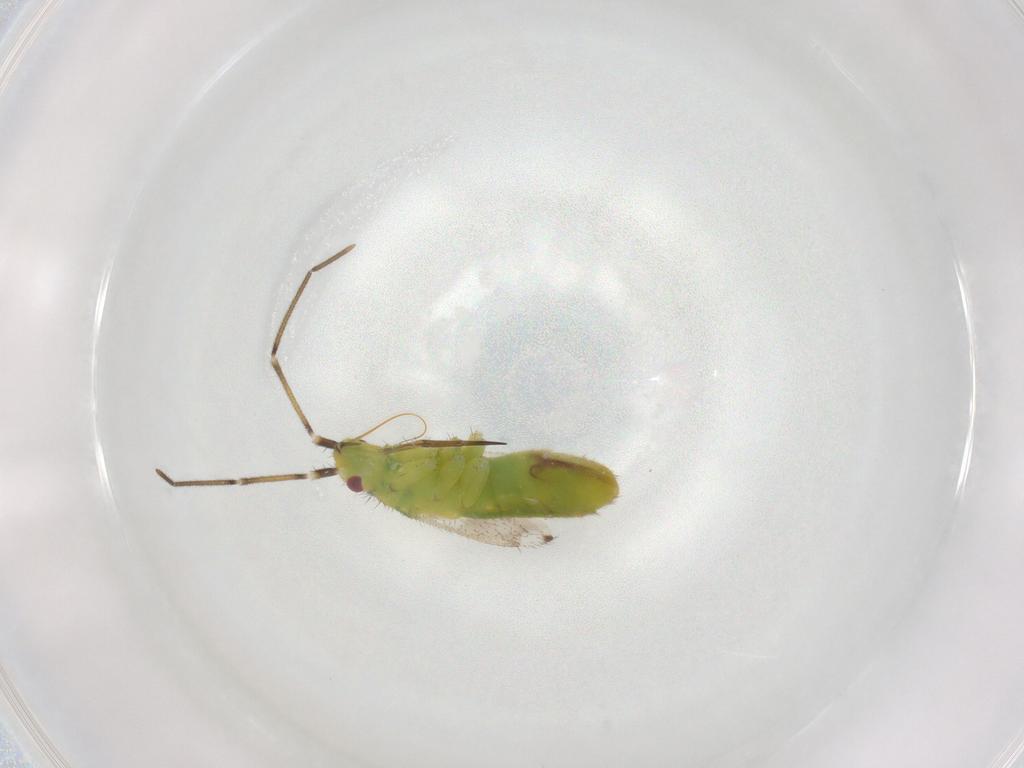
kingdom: Animalia
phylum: Arthropoda
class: Insecta
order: Hemiptera
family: Miridae
